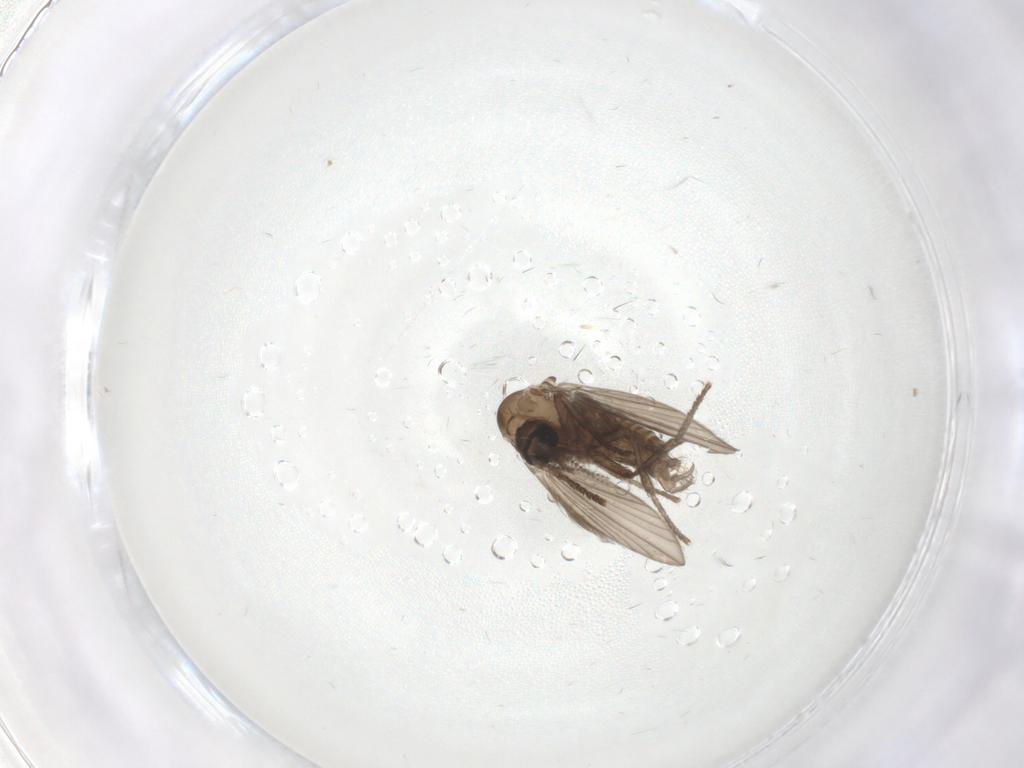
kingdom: Animalia
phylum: Arthropoda
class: Insecta
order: Diptera
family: Psychodidae
